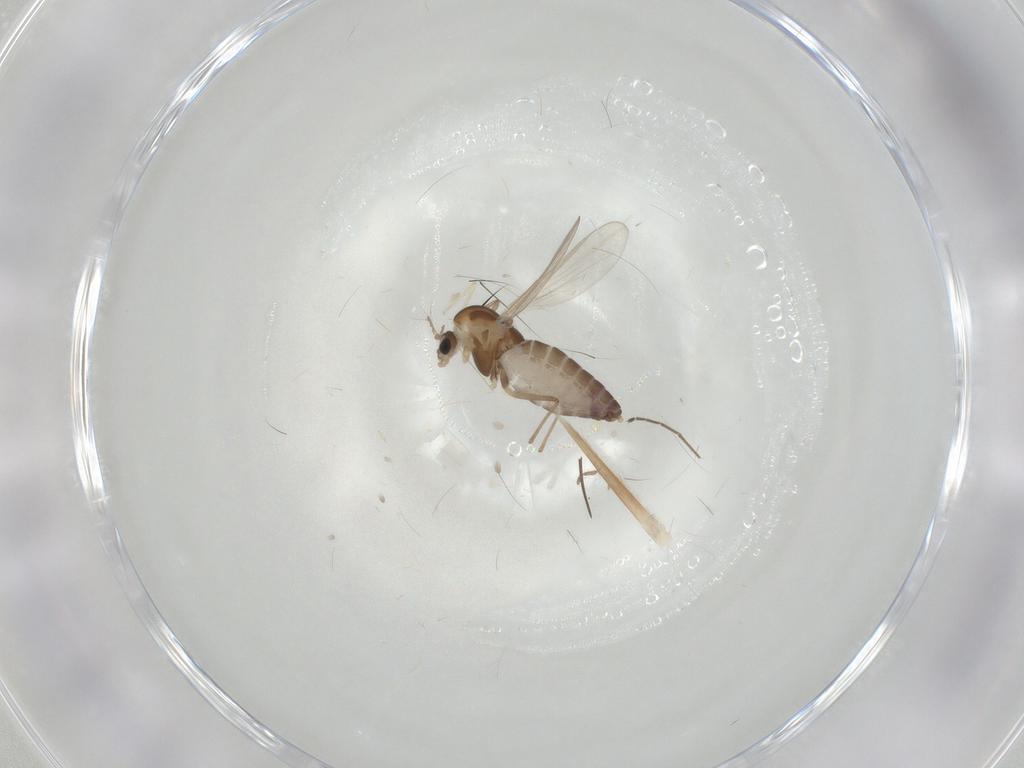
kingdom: Animalia
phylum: Arthropoda
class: Insecta
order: Diptera
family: Chironomidae
